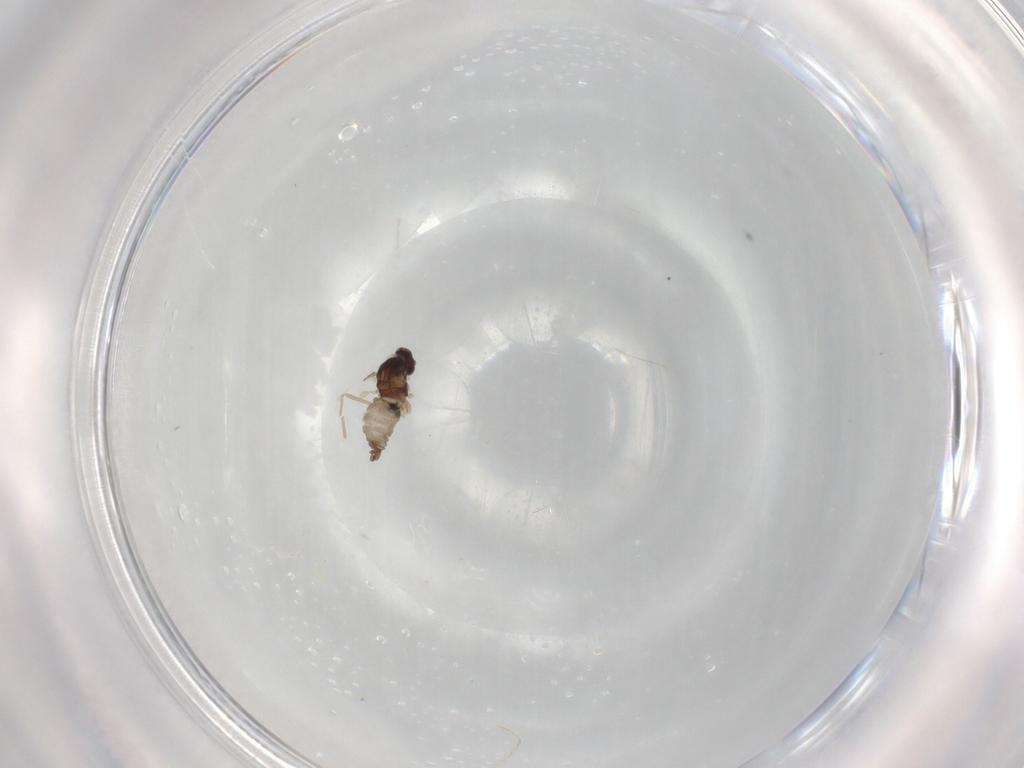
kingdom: Animalia
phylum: Arthropoda
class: Insecta
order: Diptera
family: Cecidomyiidae
